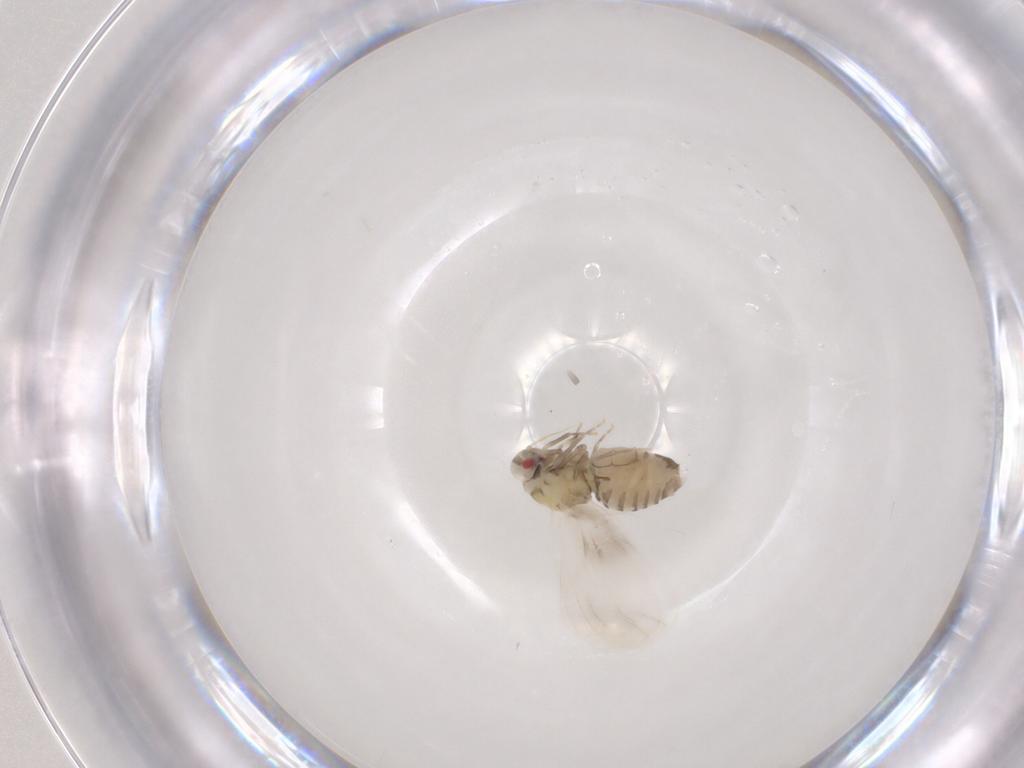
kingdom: Animalia
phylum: Arthropoda
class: Insecta
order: Hemiptera
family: Aleyrodidae
